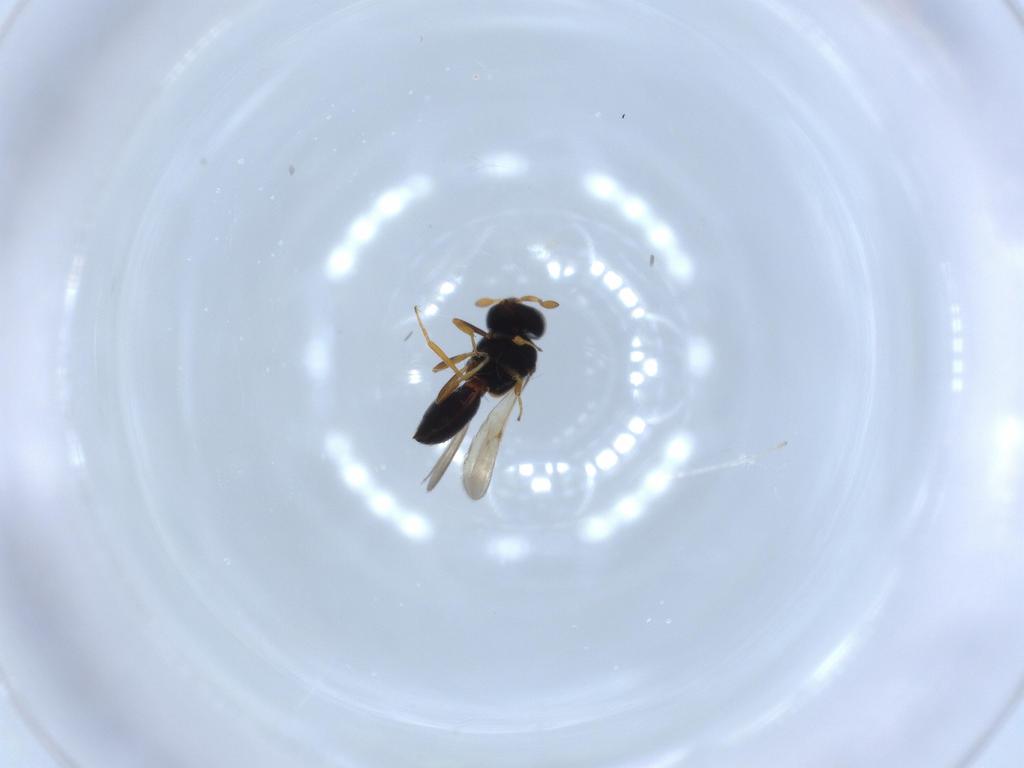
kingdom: Animalia
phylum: Arthropoda
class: Insecta
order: Hymenoptera
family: Scelionidae
